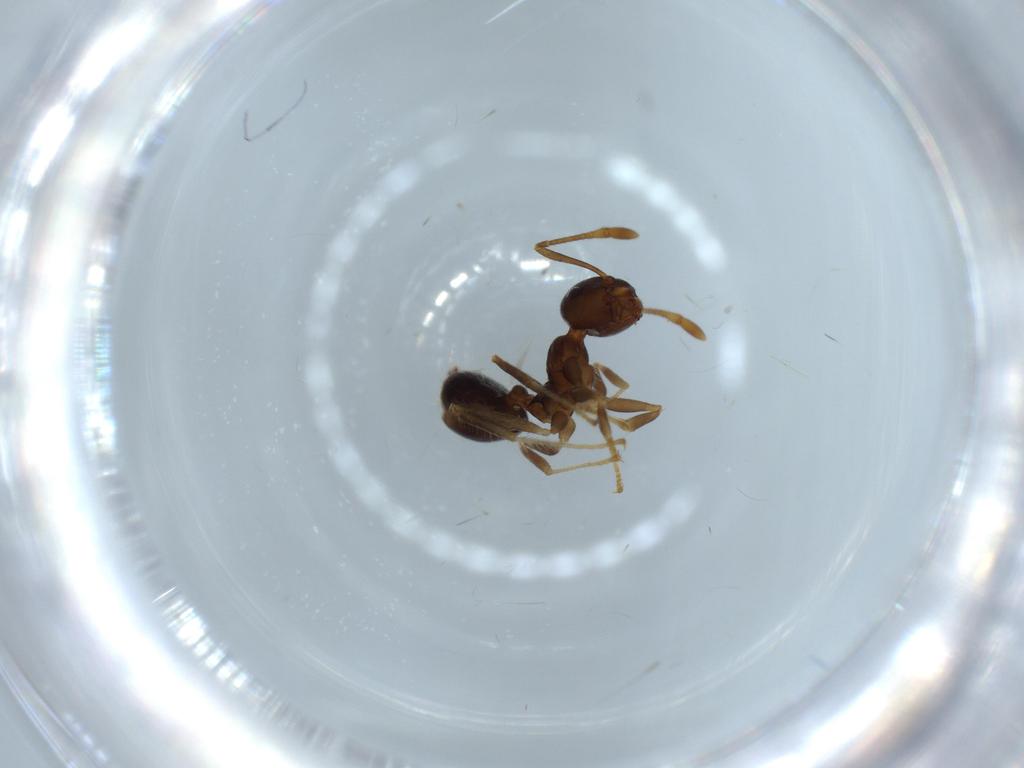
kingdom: Animalia
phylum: Arthropoda
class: Insecta
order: Hymenoptera
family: Formicidae
